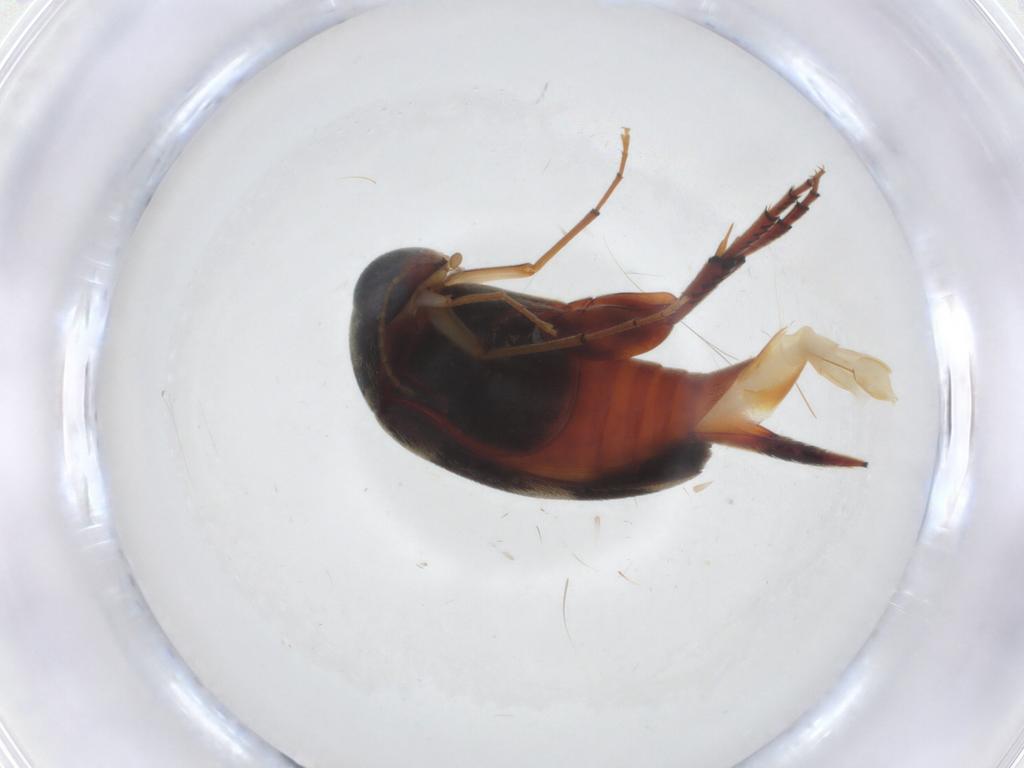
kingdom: Animalia
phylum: Arthropoda
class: Insecta
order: Coleoptera
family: Mordellidae
